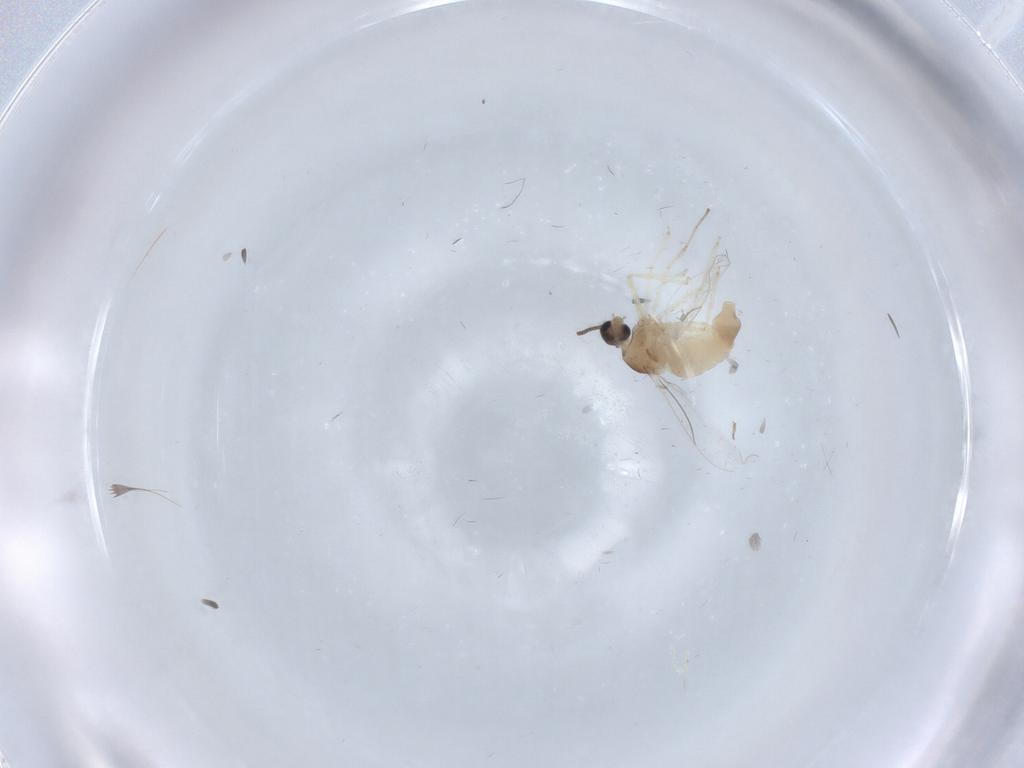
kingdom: Animalia
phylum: Arthropoda
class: Insecta
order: Diptera
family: Cecidomyiidae
